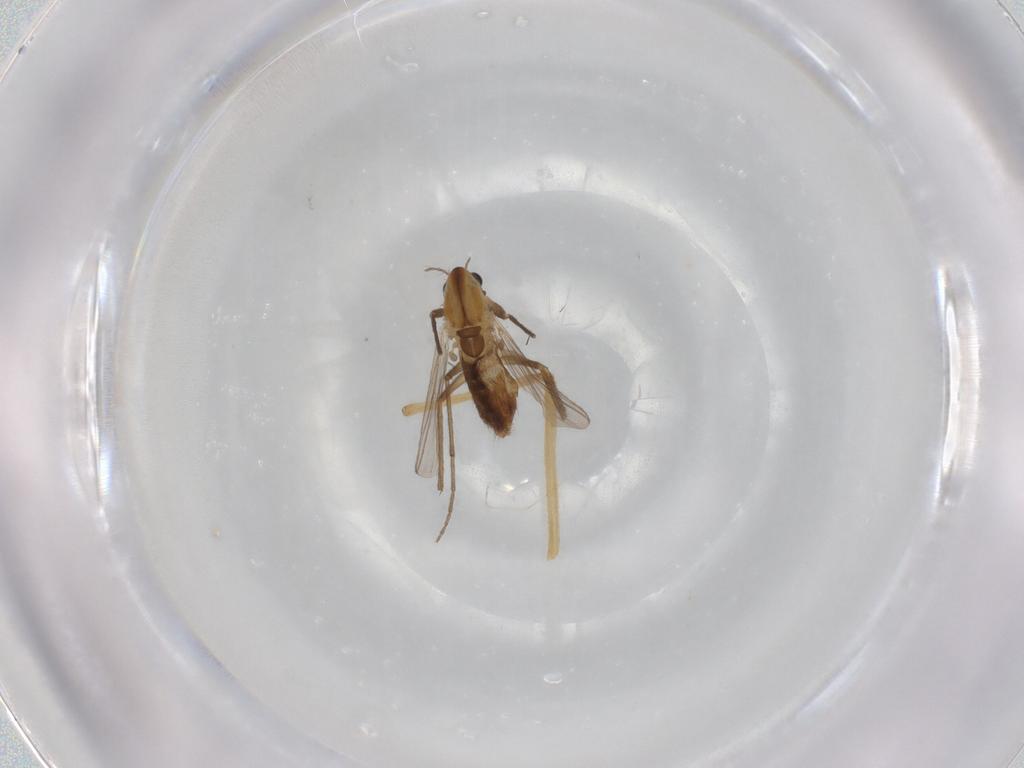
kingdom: Animalia
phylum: Arthropoda
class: Insecta
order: Diptera
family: Chironomidae
